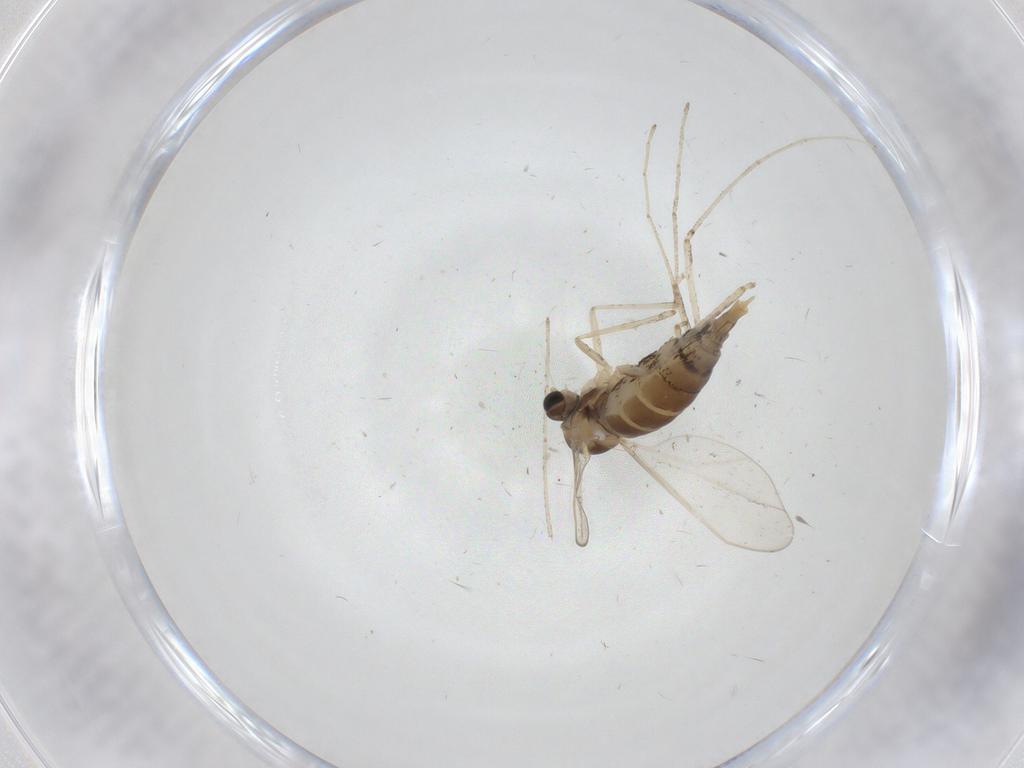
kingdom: Animalia
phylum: Arthropoda
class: Insecta
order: Diptera
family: Cecidomyiidae
